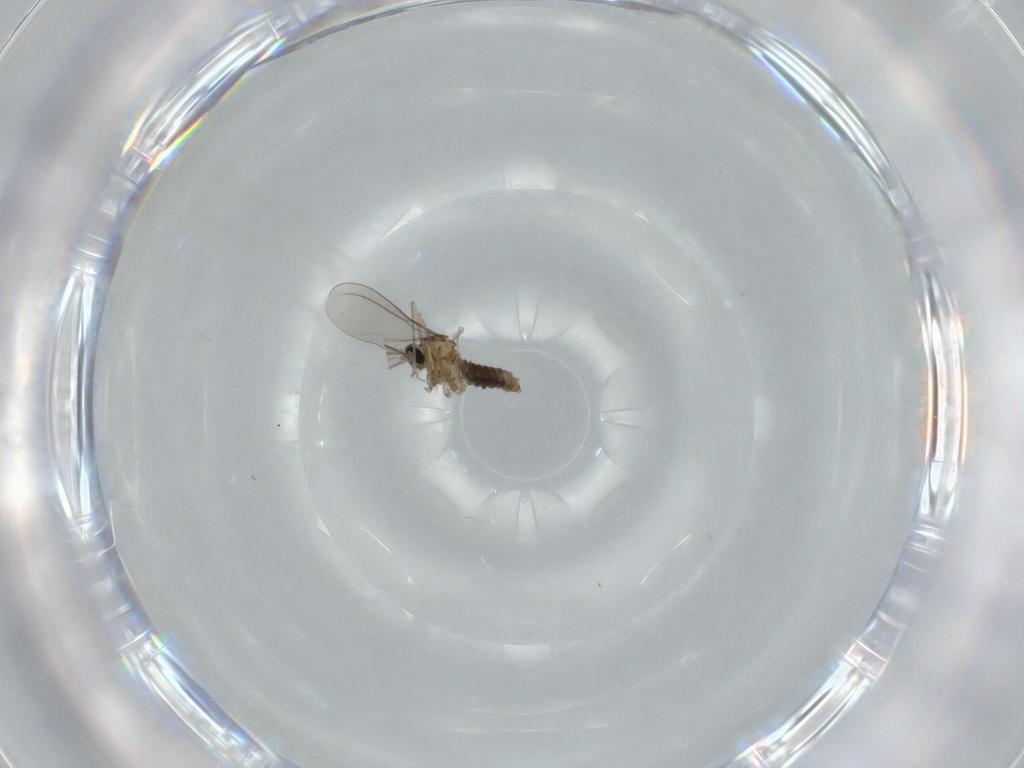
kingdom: Animalia
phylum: Arthropoda
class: Insecta
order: Diptera
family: Cecidomyiidae
